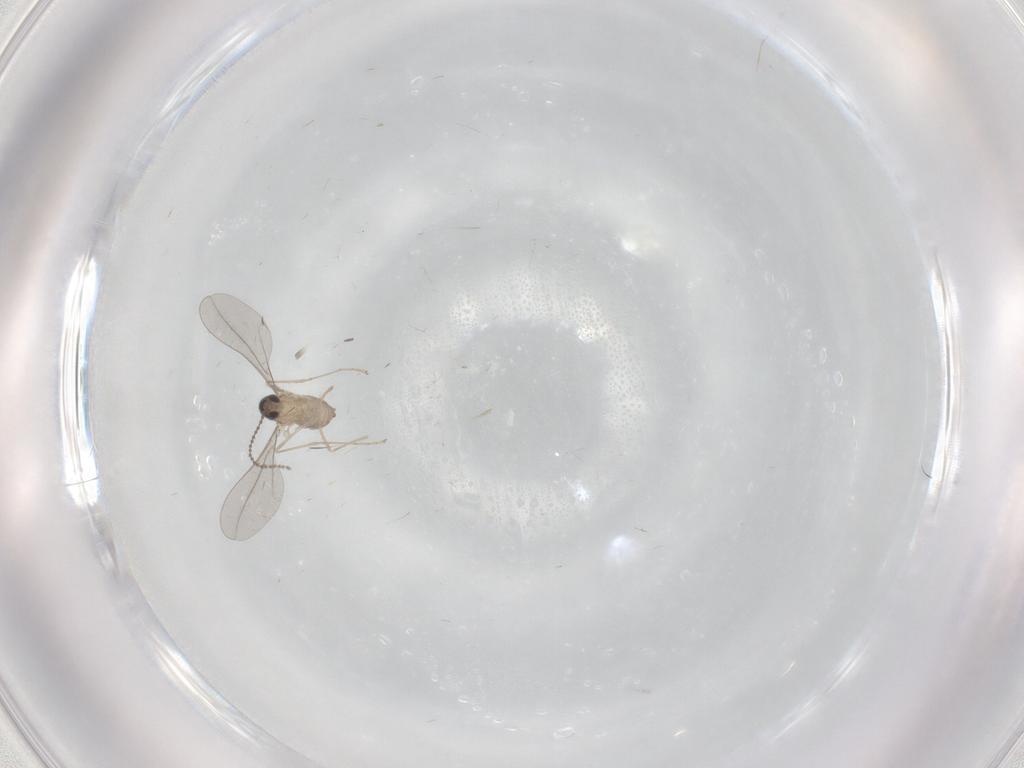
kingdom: Animalia
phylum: Arthropoda
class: Insecta
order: Diptera
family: Cecidomyiidae
